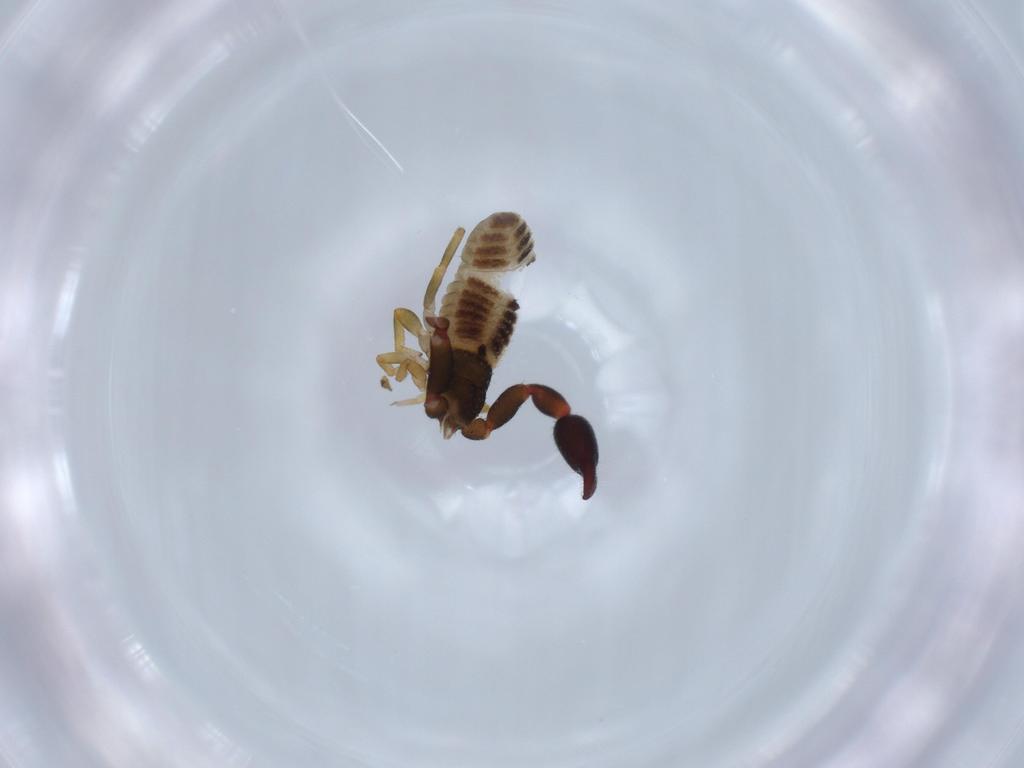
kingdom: Animalia
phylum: Arthropoda
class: Arachnida
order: Pseudoscorpiones
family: Chernetidae
